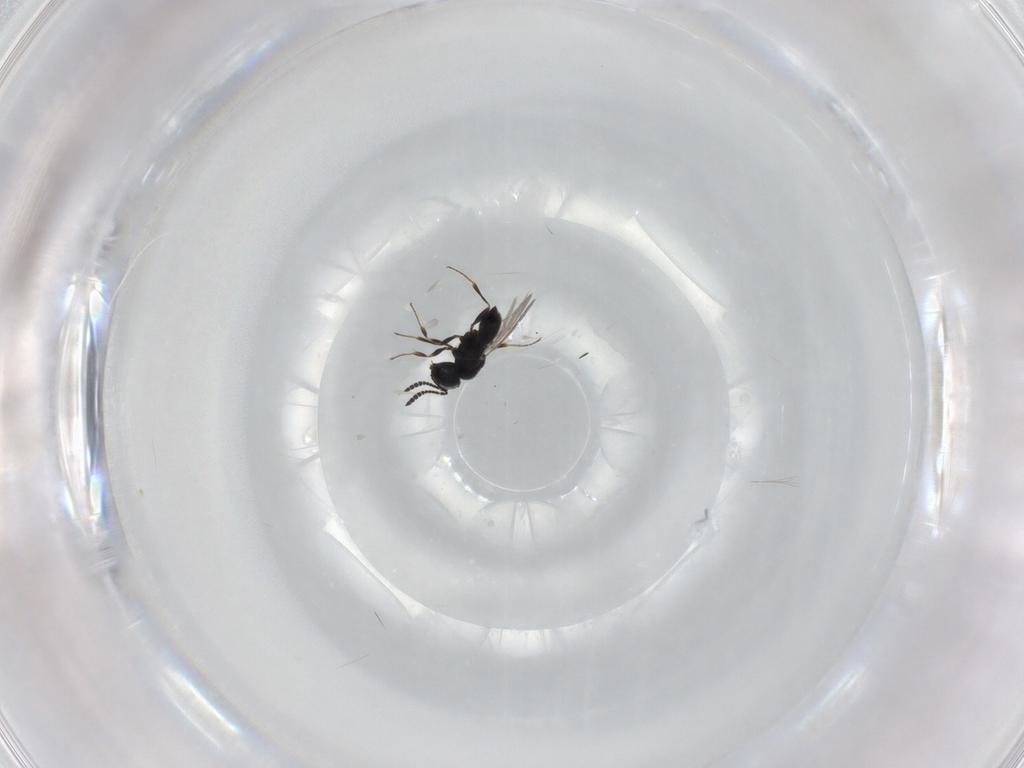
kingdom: Animalia
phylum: Arthropoda
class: Insecta
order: Hymenoptera
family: Scelionidae
